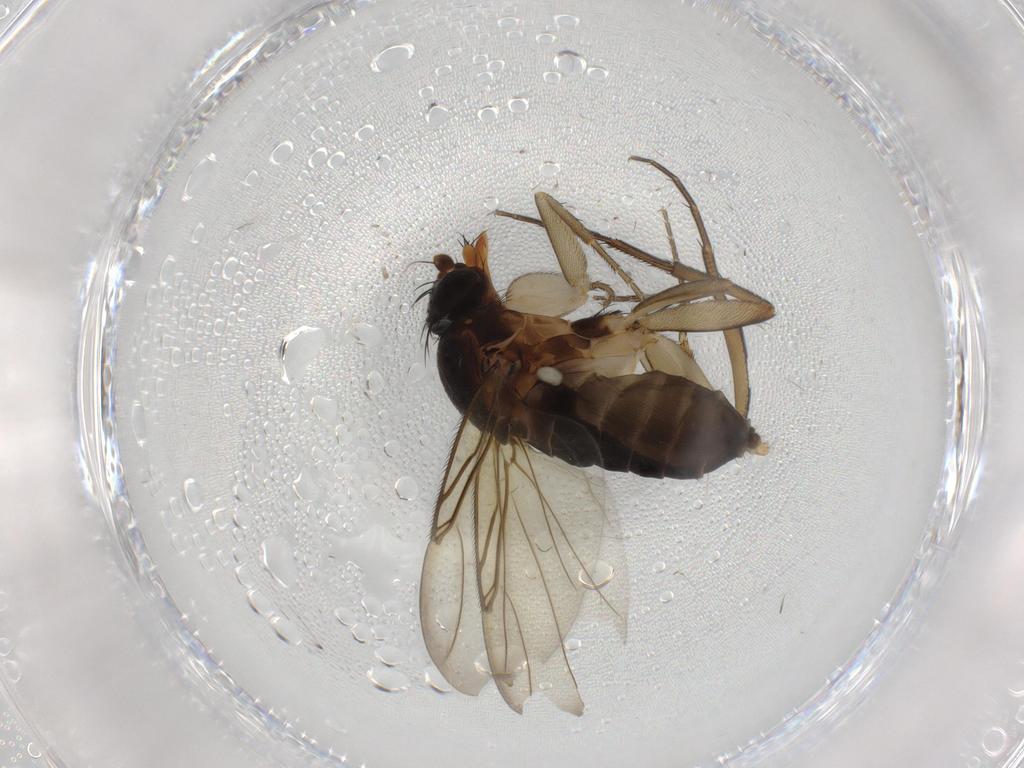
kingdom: Animalia
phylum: Arthropoda
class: Insecta
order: Diptera
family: Phoridae
